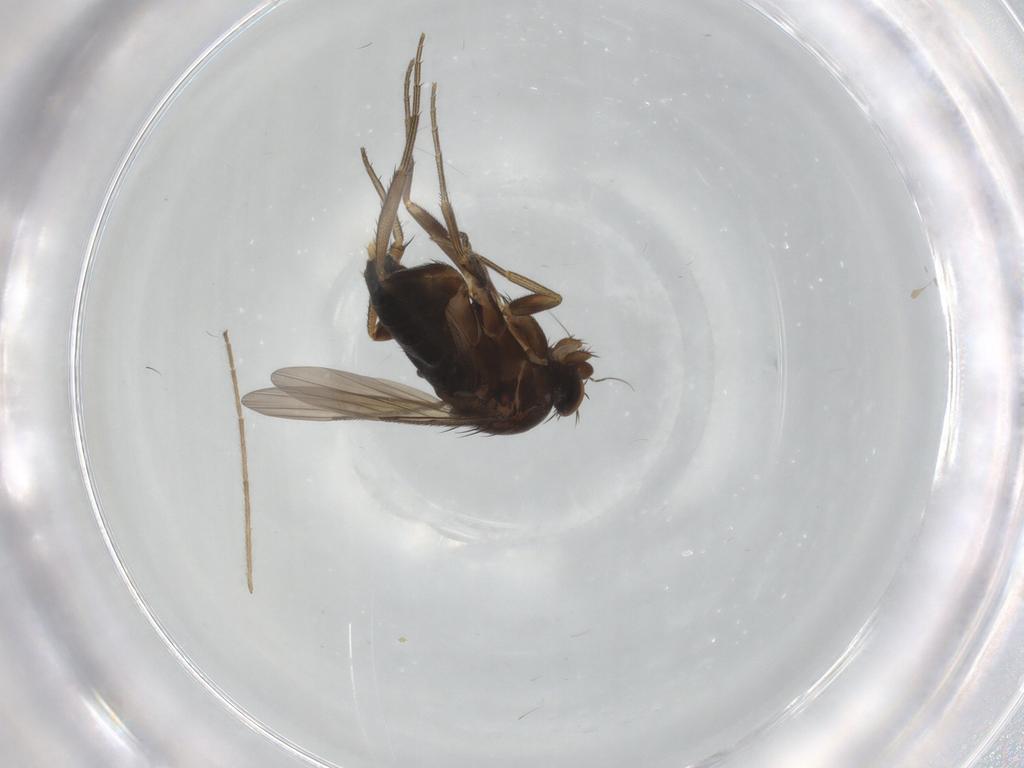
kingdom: Animalia
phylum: Arthropoda
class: Insecta
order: Diptera
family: Phoridae
